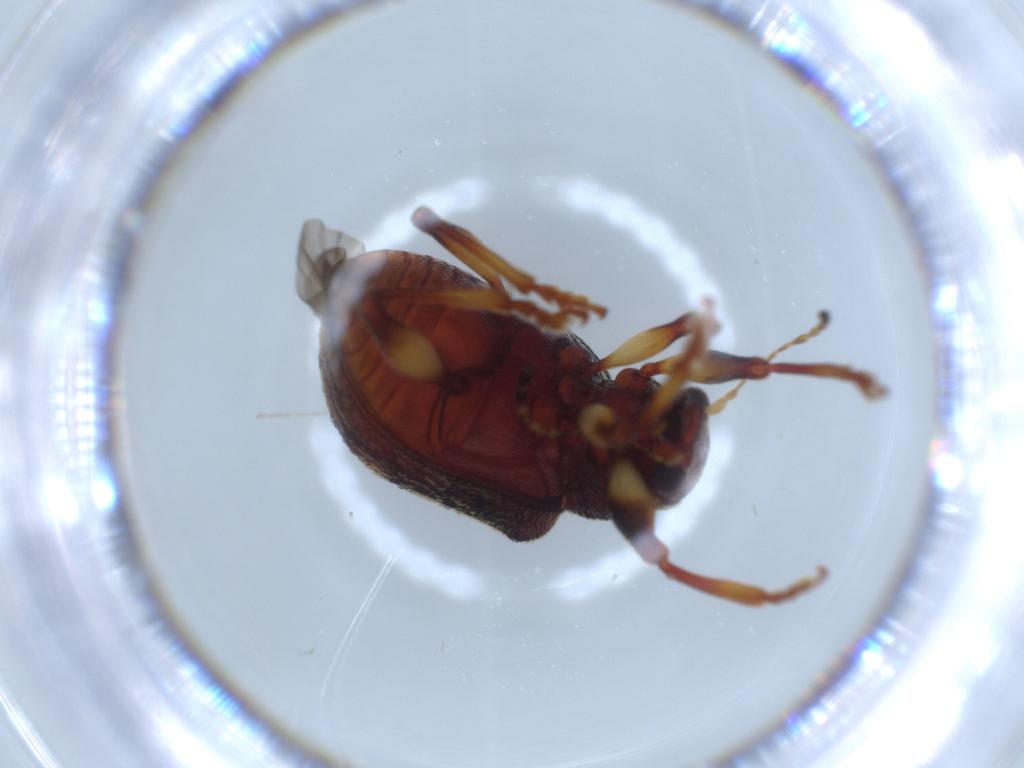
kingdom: Animalia
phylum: Arthropoda
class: Insecta
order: Coleoptera
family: Chrysomelidae
